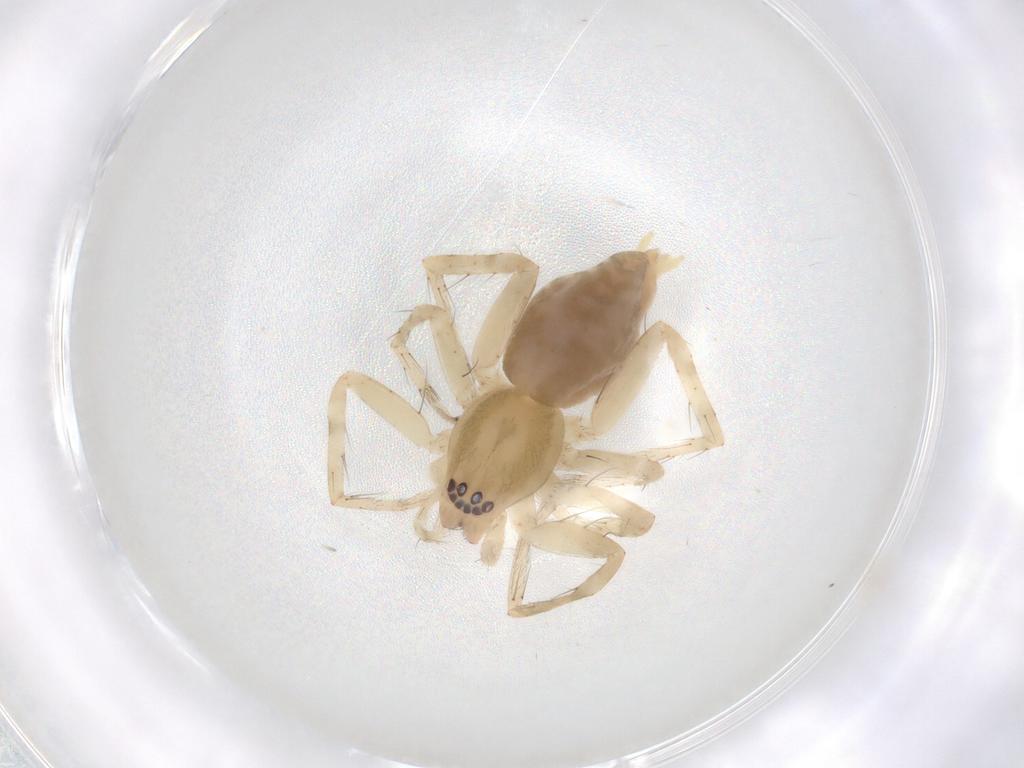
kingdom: Animalia
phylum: Arthropoda
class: Arachnida
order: Araneae
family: Anyphaenidae
